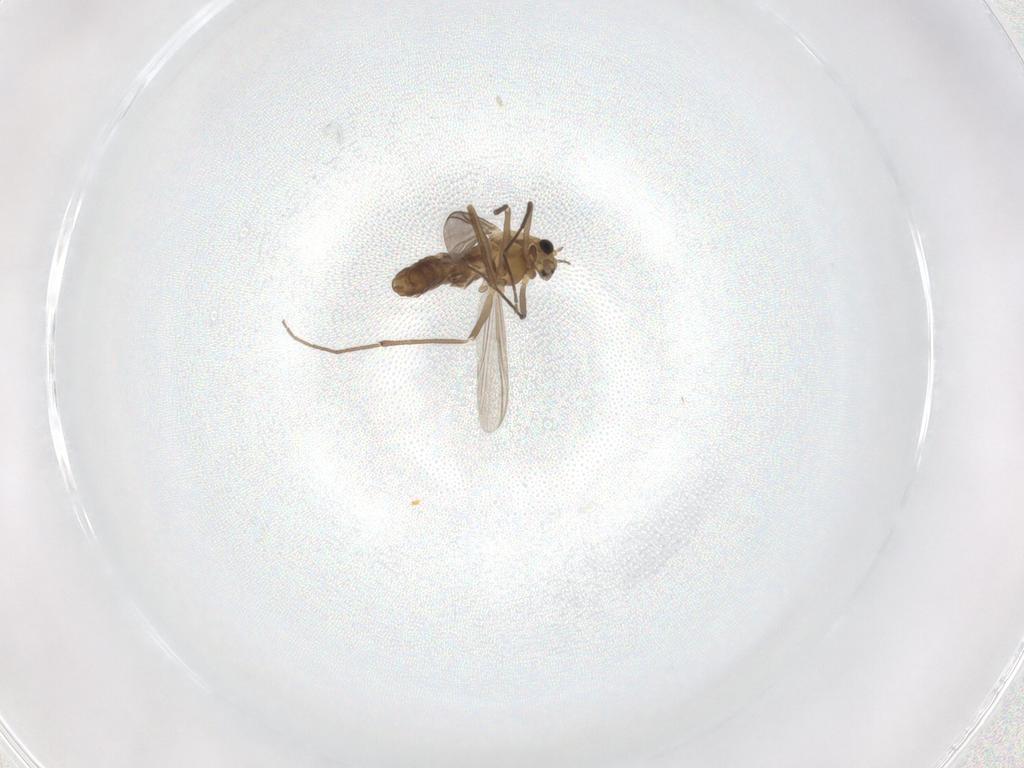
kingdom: Animalia
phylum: Arthropoda
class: Insecta
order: Diptera
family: Chironomidae
